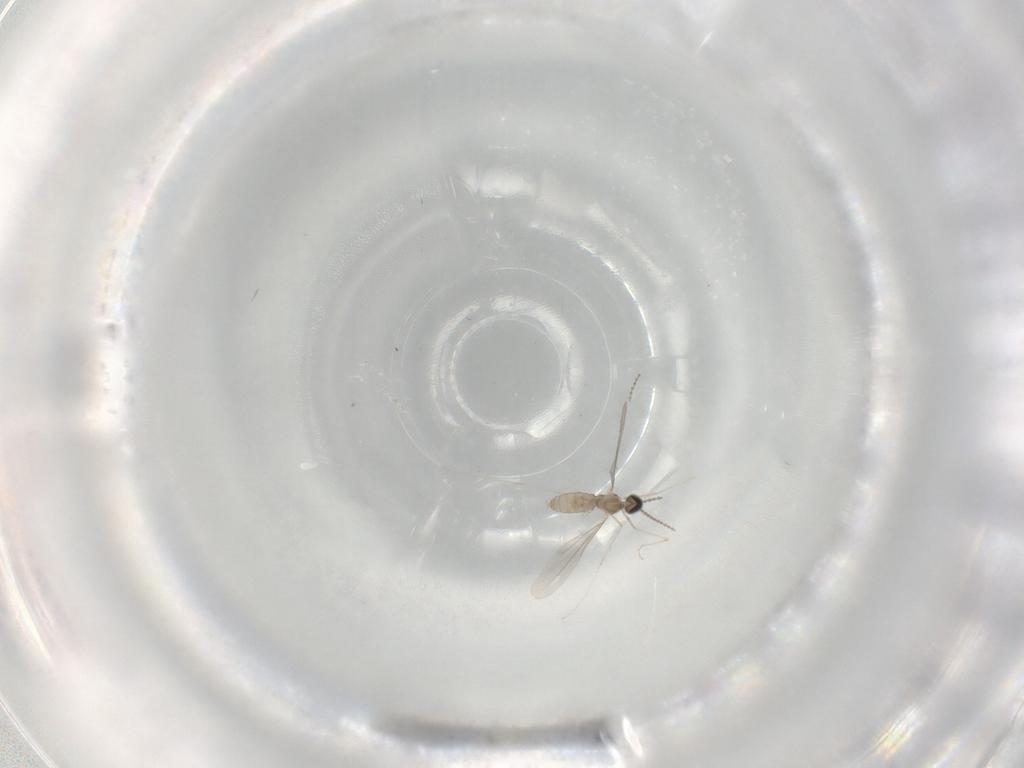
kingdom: Animalia
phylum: Arthropoda
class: Insecta
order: Diptera
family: Cecidomyiidae
